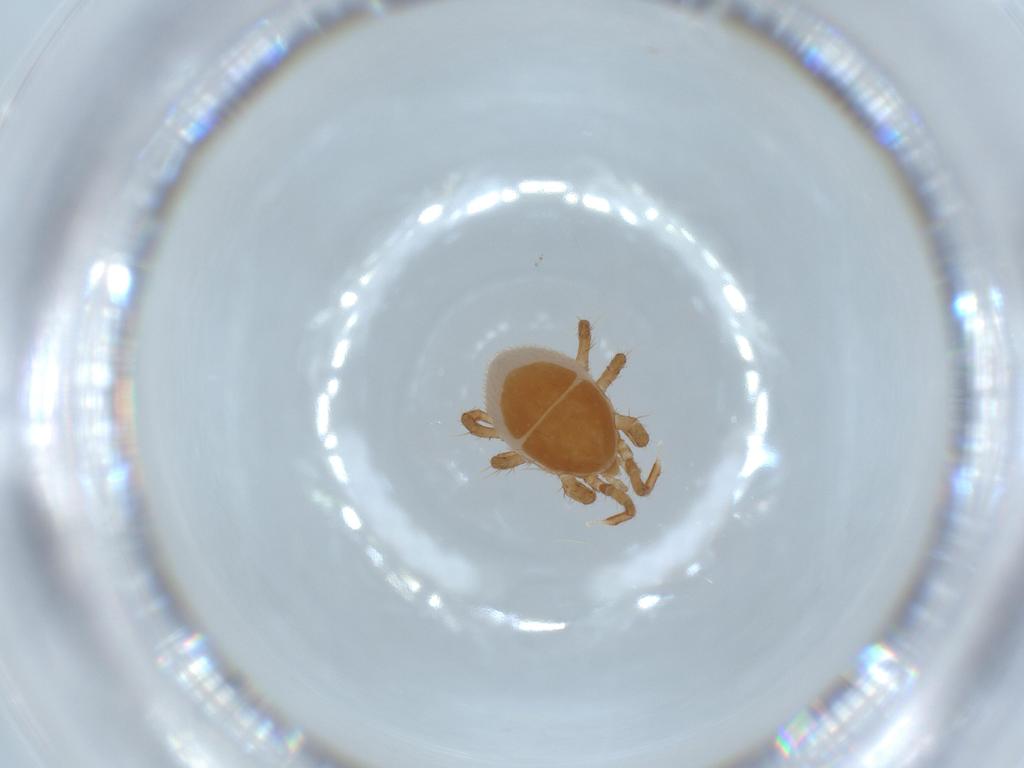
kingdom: Animalia
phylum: Arthropoda
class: Arachnida
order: Mesostigmata
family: Parasitidae
